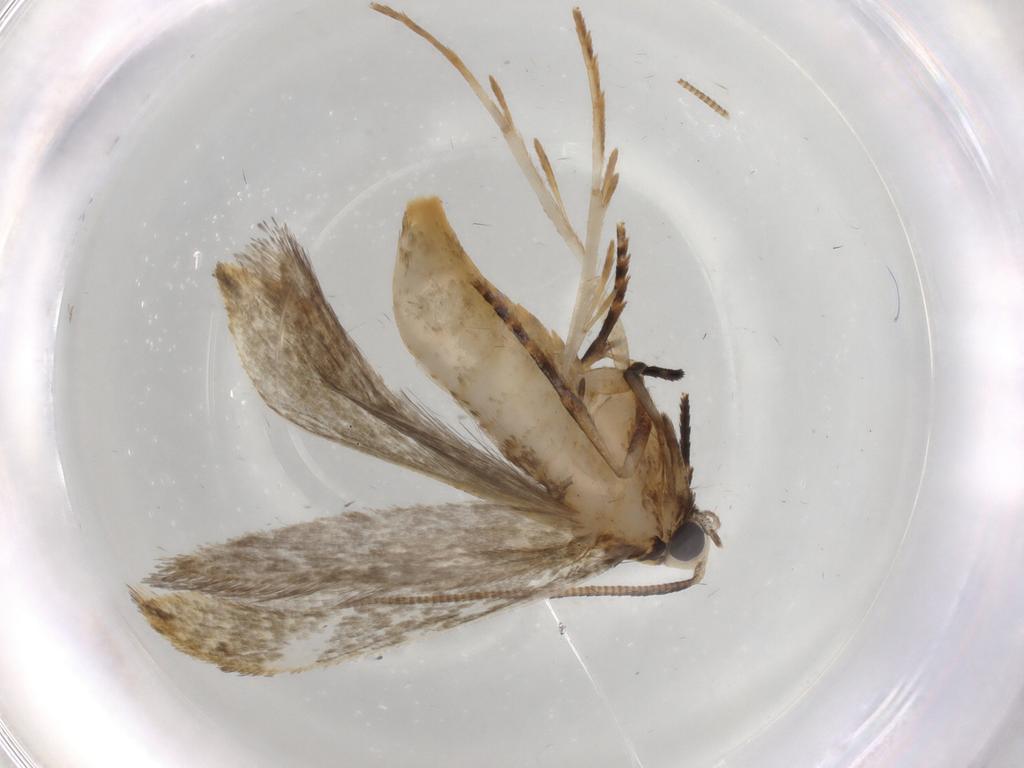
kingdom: Animalia
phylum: Arthropoda
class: Insecta
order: Lepidoptera
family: Tineidae
